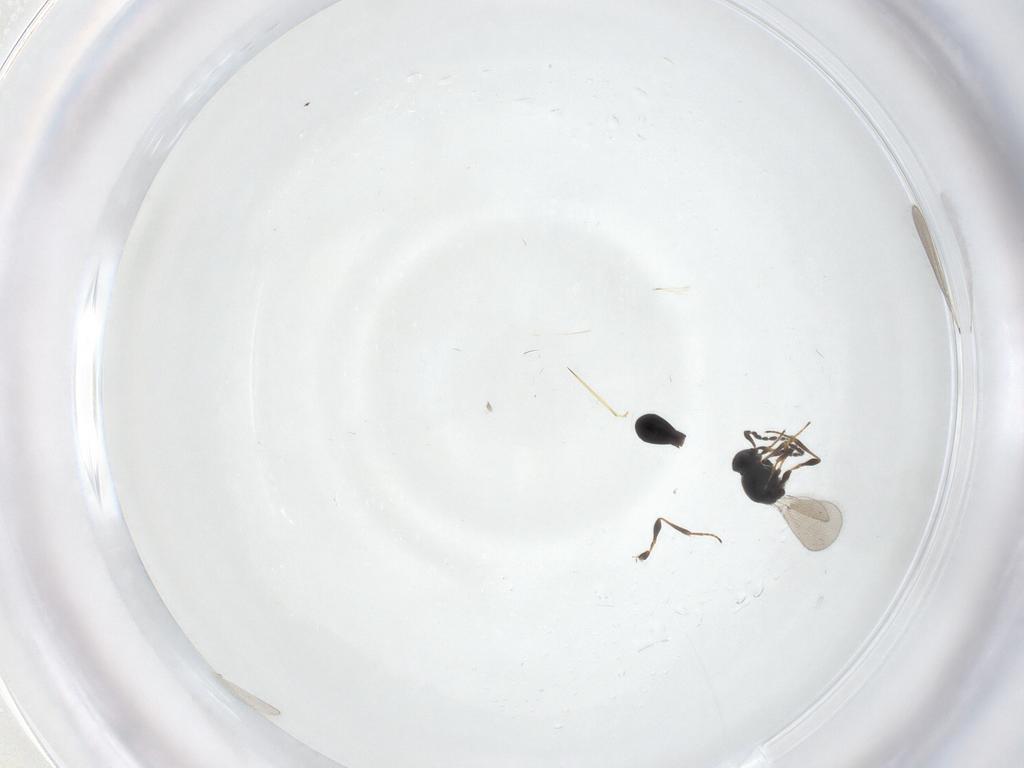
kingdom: Animalia
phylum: Arthropoda
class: Insecta
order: Hymenoptera
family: Platygastridae
